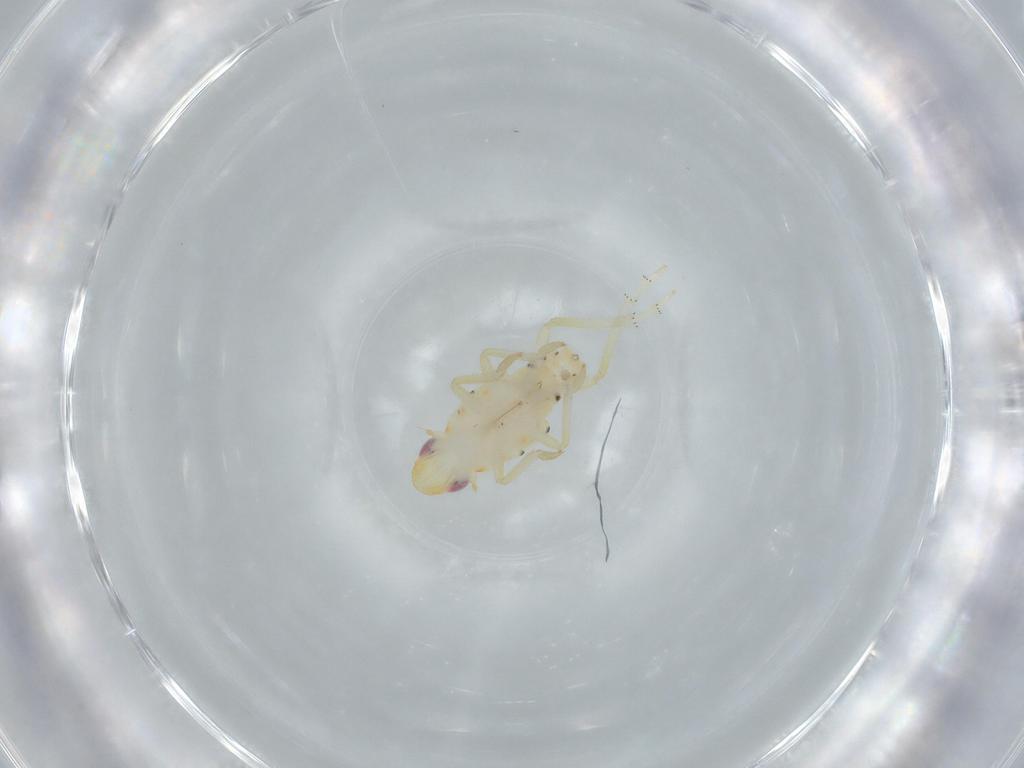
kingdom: Animalia
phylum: Arthropoda
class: Insecta
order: Hemiptera
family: Tropiduchidae
